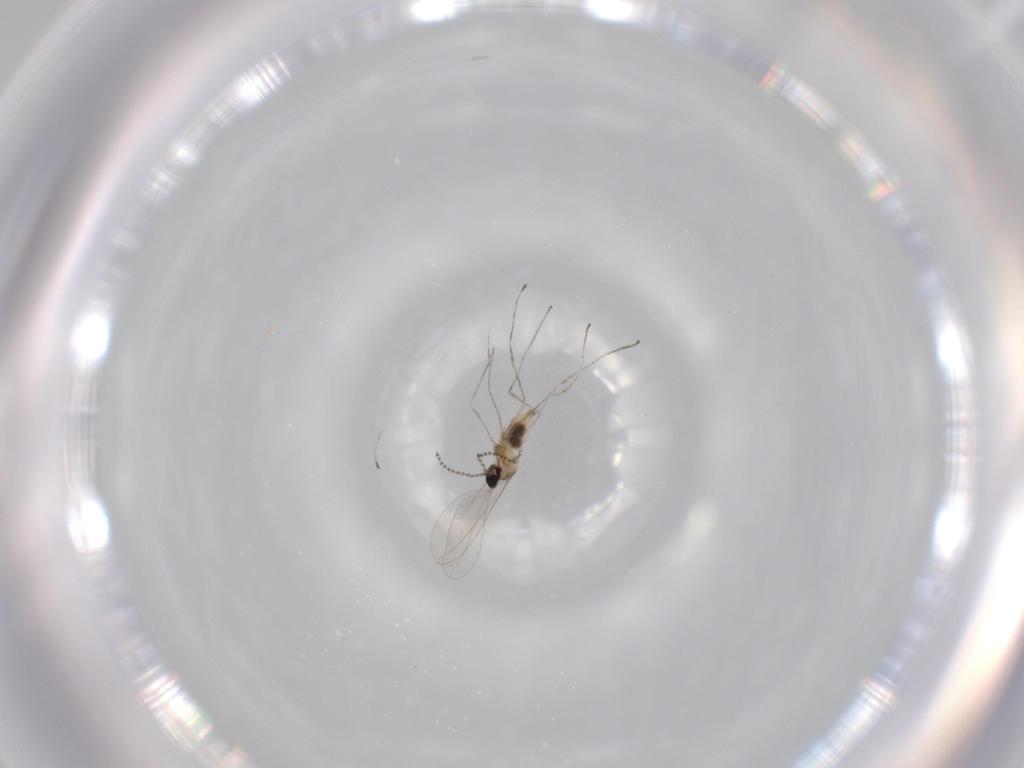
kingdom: Animalia
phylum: Arthropoda
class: Insecta
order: Diptera
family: Cecidomyiidae
